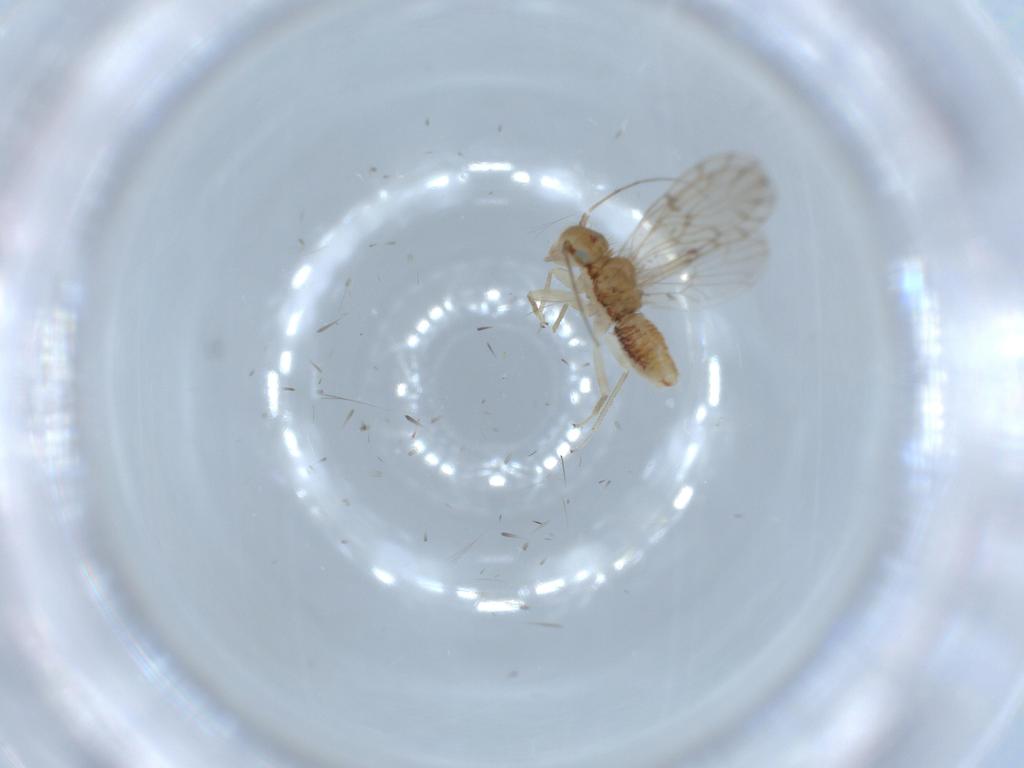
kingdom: Animalia
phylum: Arthropoda
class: Insecta
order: Psocodea
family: Ectopsocidae
